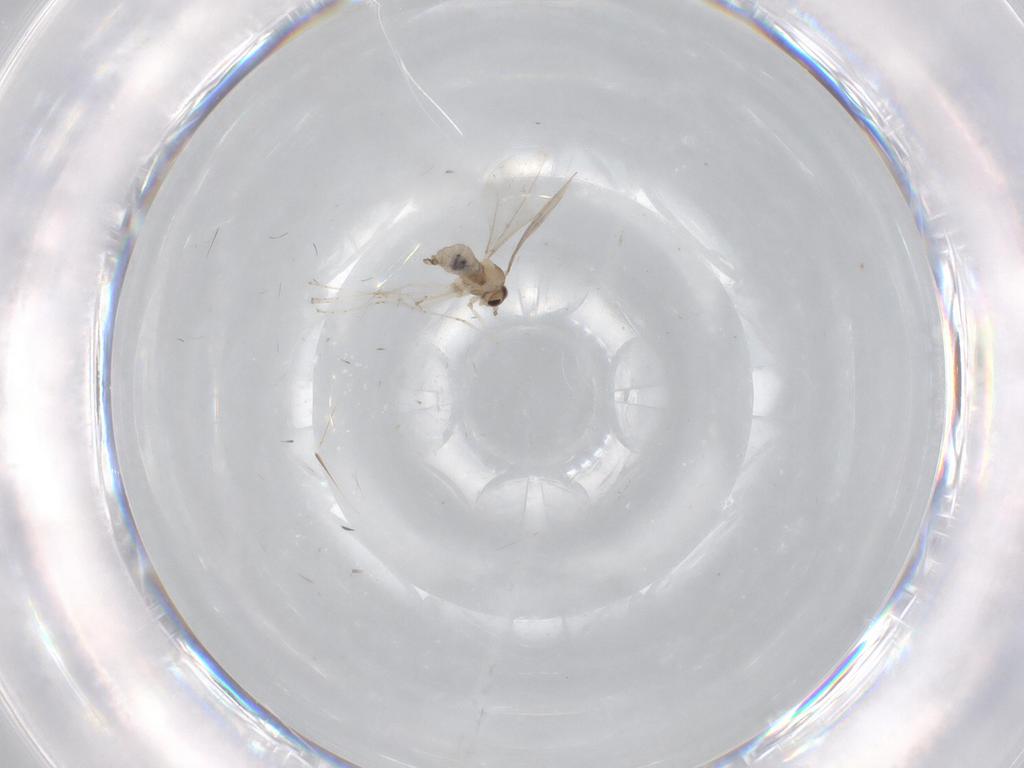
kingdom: Animalia
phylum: Arthropoda
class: Insecta
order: Diptera
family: Cecidomyiidae
